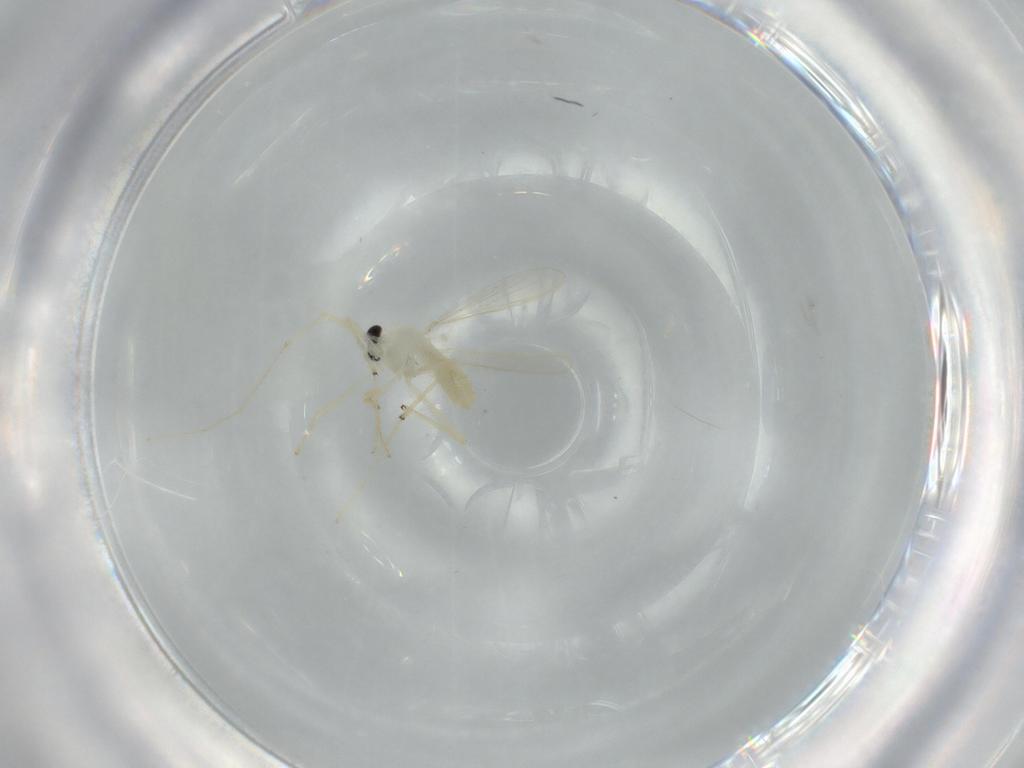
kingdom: Animalia
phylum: Arthropoda
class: Insecta
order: Diptera
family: Chironomidae
